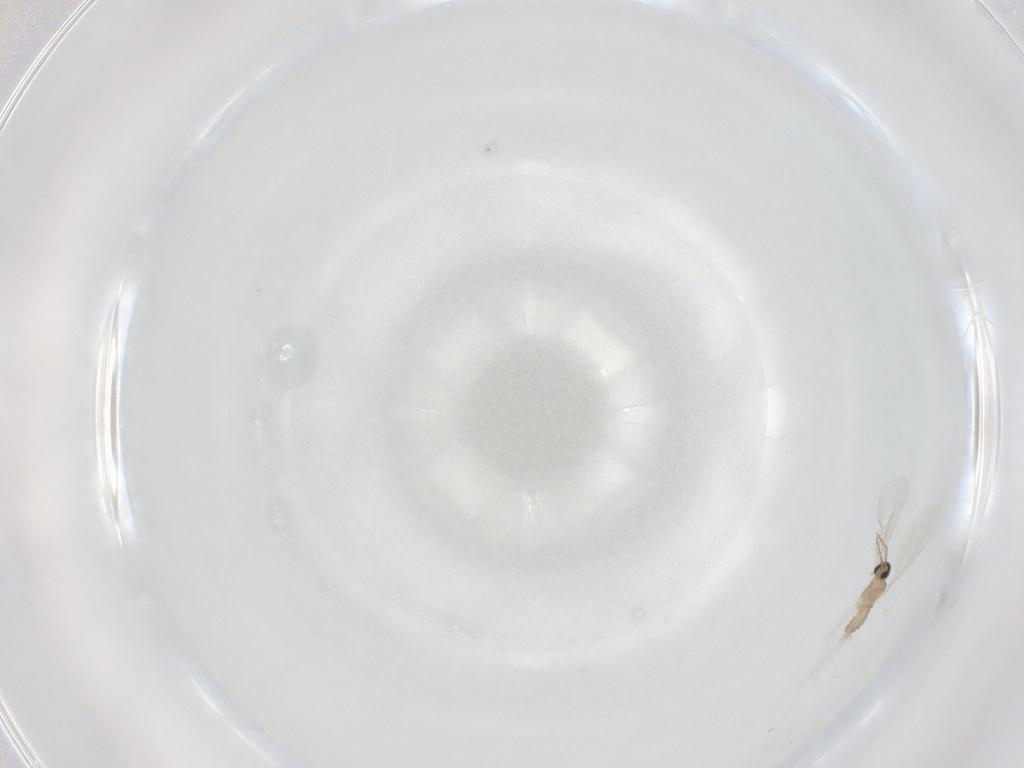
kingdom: Animalia
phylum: Arthropoda
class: Insecta
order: Diptera
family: Cecidomyiidae
